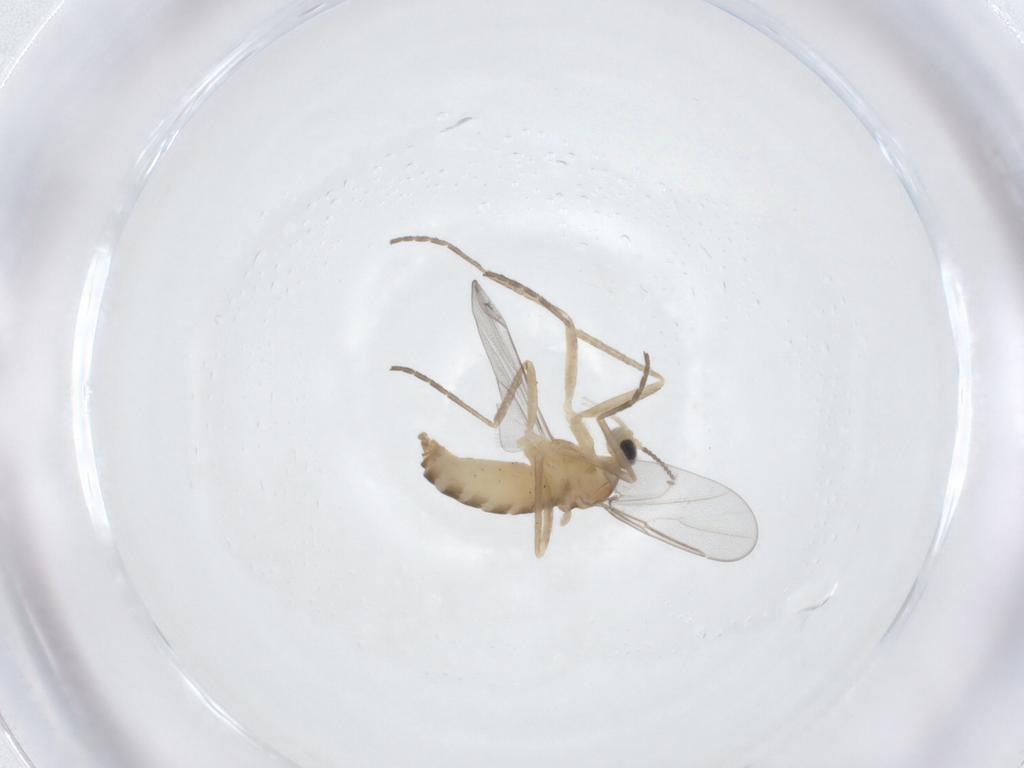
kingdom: Animalia
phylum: Arthropoda
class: Insecta
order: Diptera
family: Cecidomyiidae
